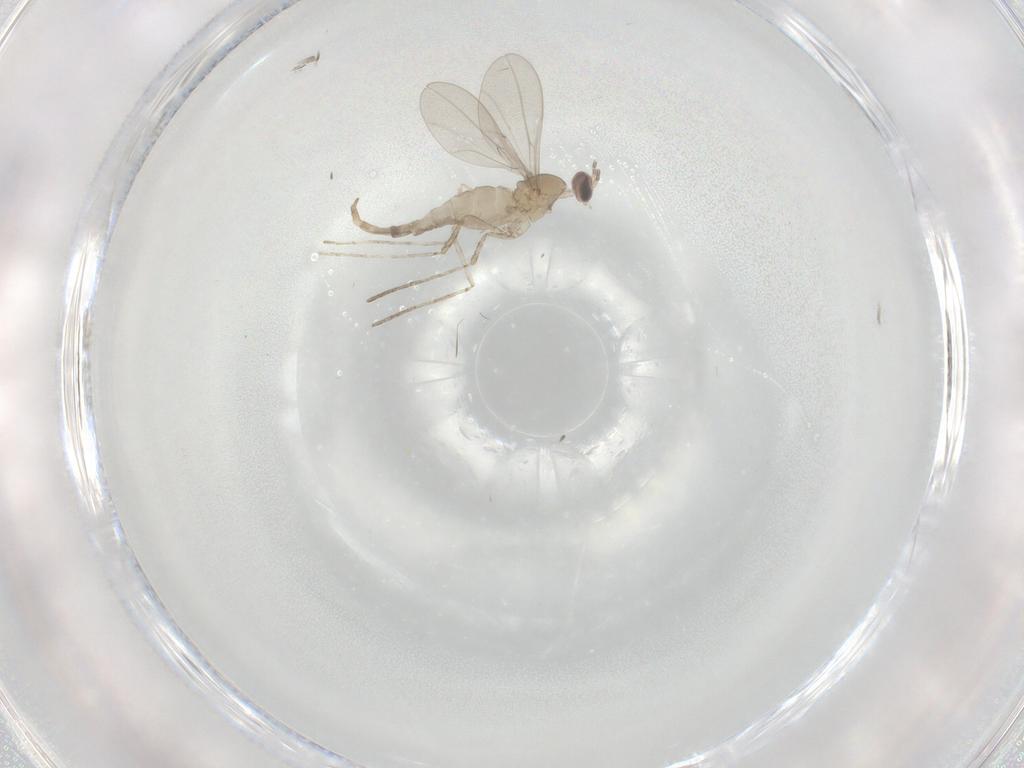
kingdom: Animalia
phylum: Arthropoda
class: Insecta
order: Diptera
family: Cecidomyiidae
